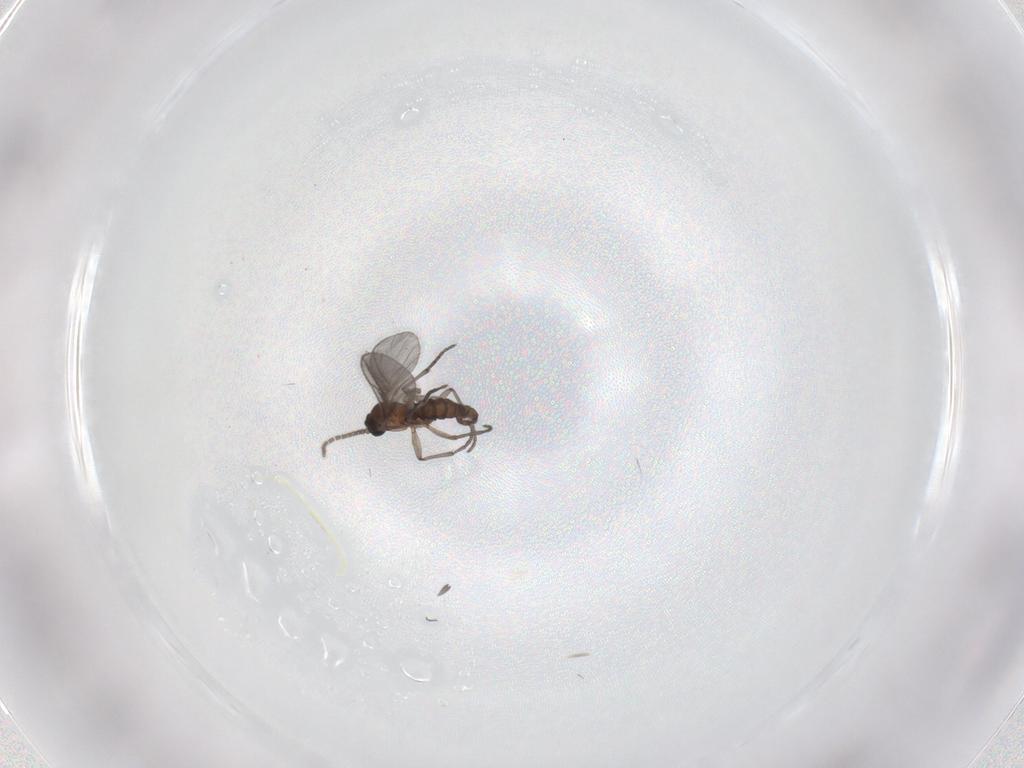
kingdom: Animalia
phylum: Arthropoda
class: Insecta
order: Diptera
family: Sciaridae
